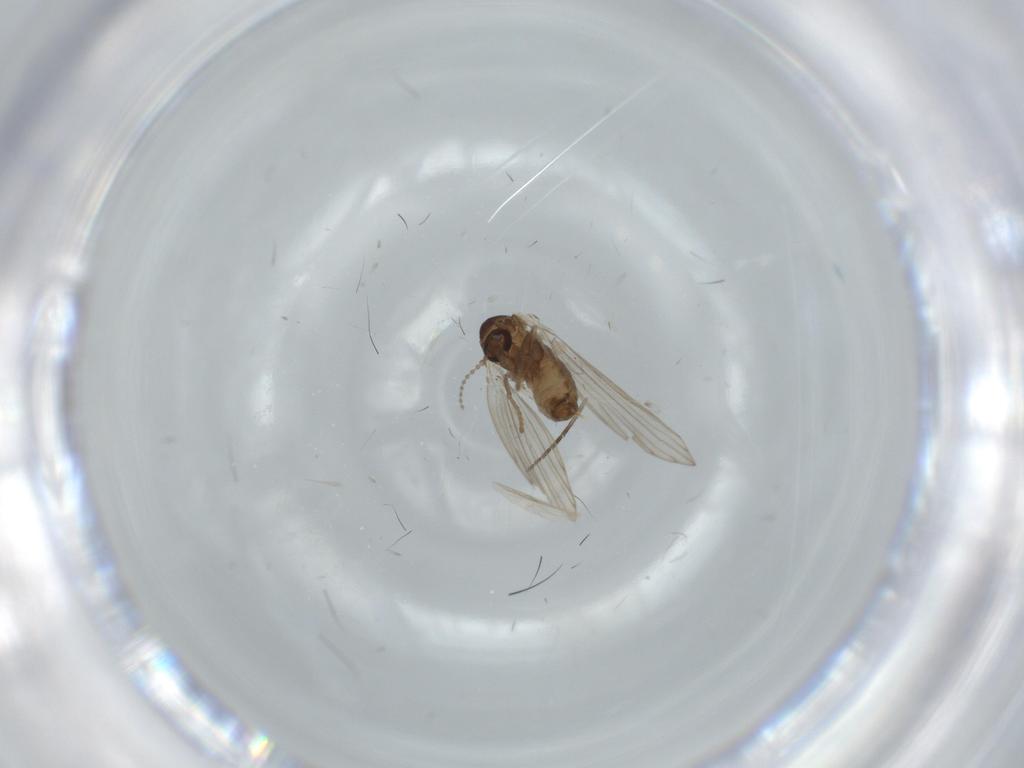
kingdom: Animalia
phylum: Arthropoda
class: Insecta
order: Diptera
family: Psychodidae
